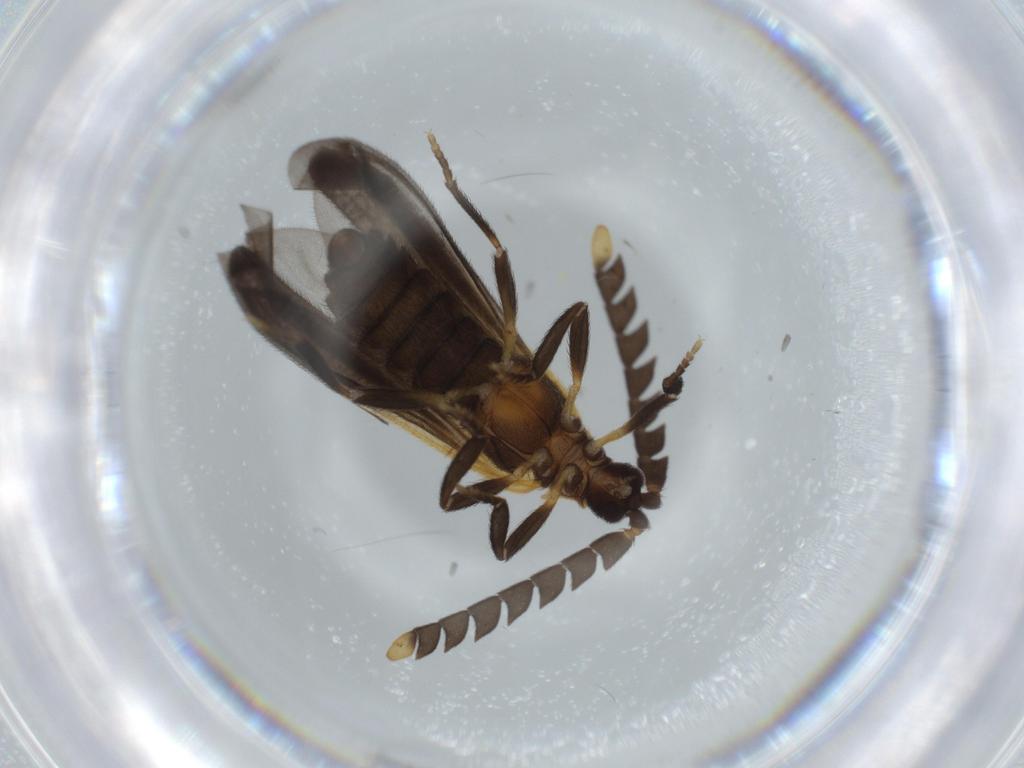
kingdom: Animalia
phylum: Arthropoda
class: Insecta
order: Coleoptera
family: Lycidae
